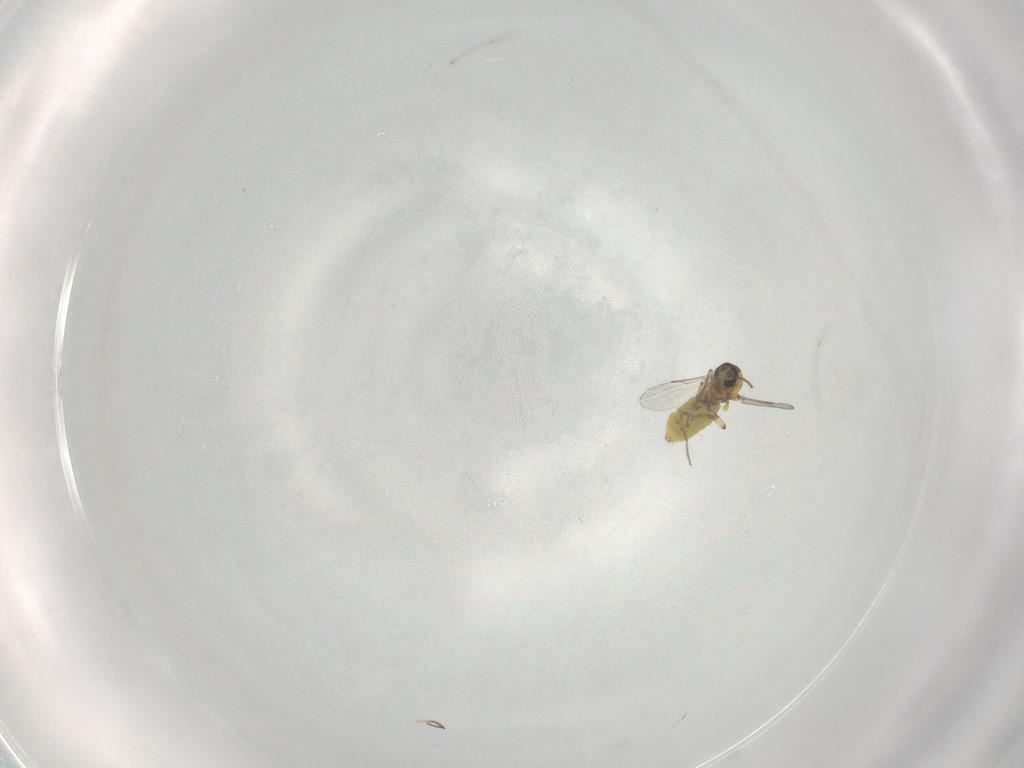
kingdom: Animalia
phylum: Arthropoda
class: Insecta
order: Diptera
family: Ceratopogonidae
